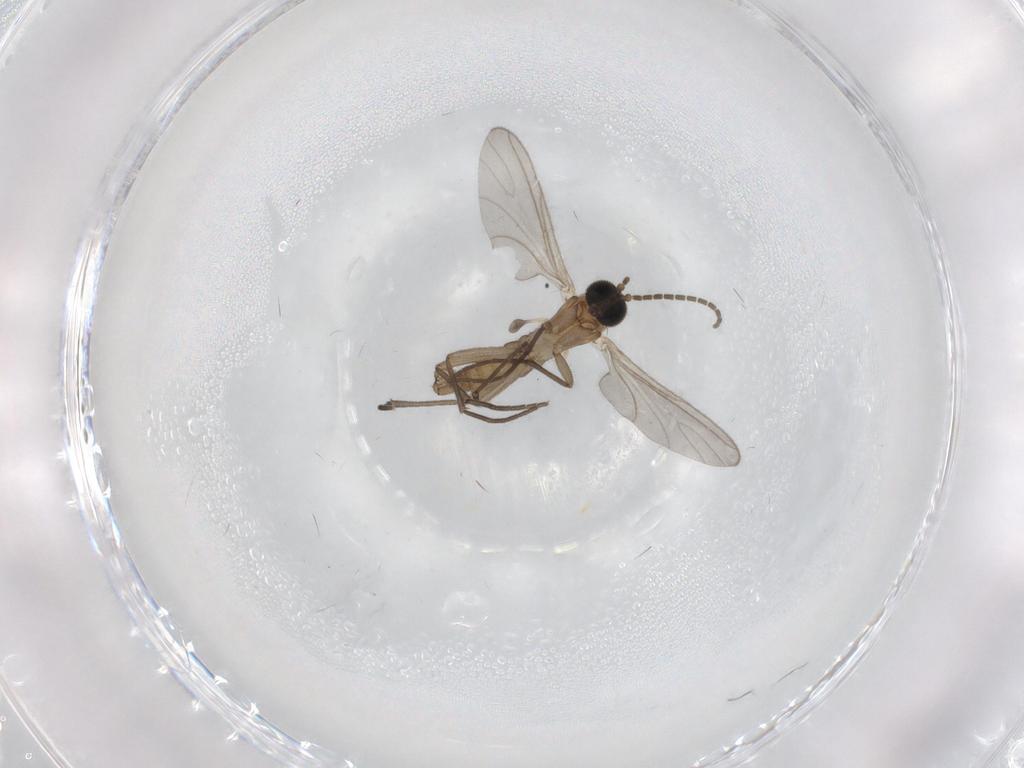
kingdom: Animalia
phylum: Arthropoda
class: Insecta
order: Diptera
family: Sciaridae
